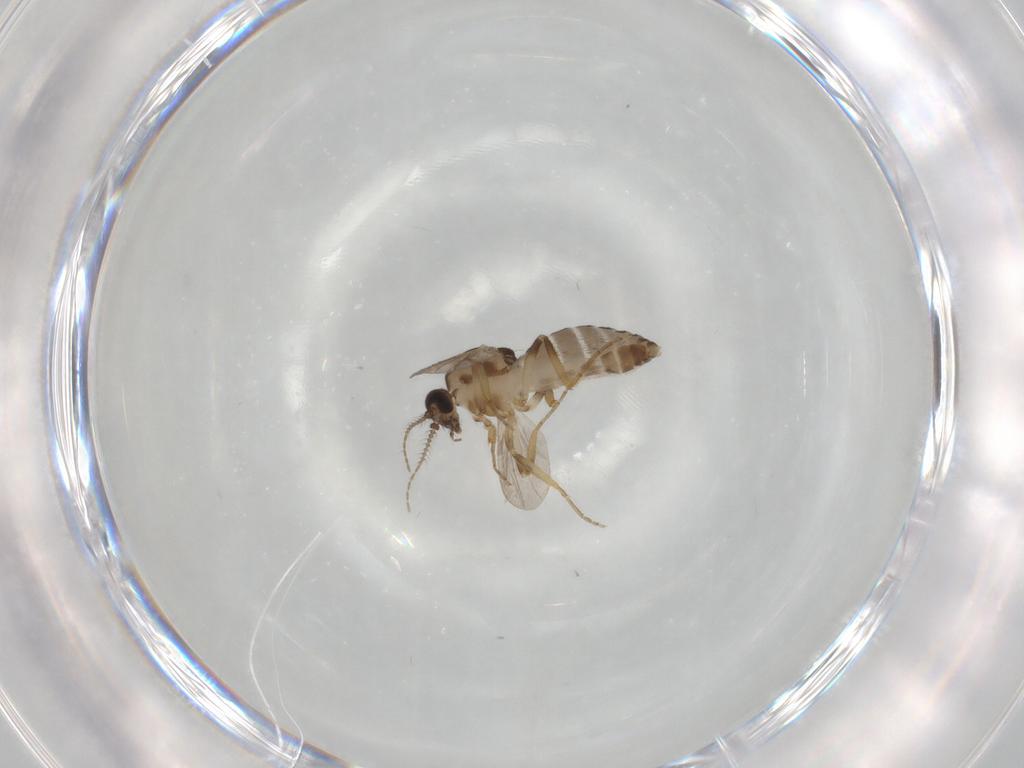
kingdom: Animalia
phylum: Arthropoda
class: Insecta
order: Diptera
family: Ceratopogonidae
